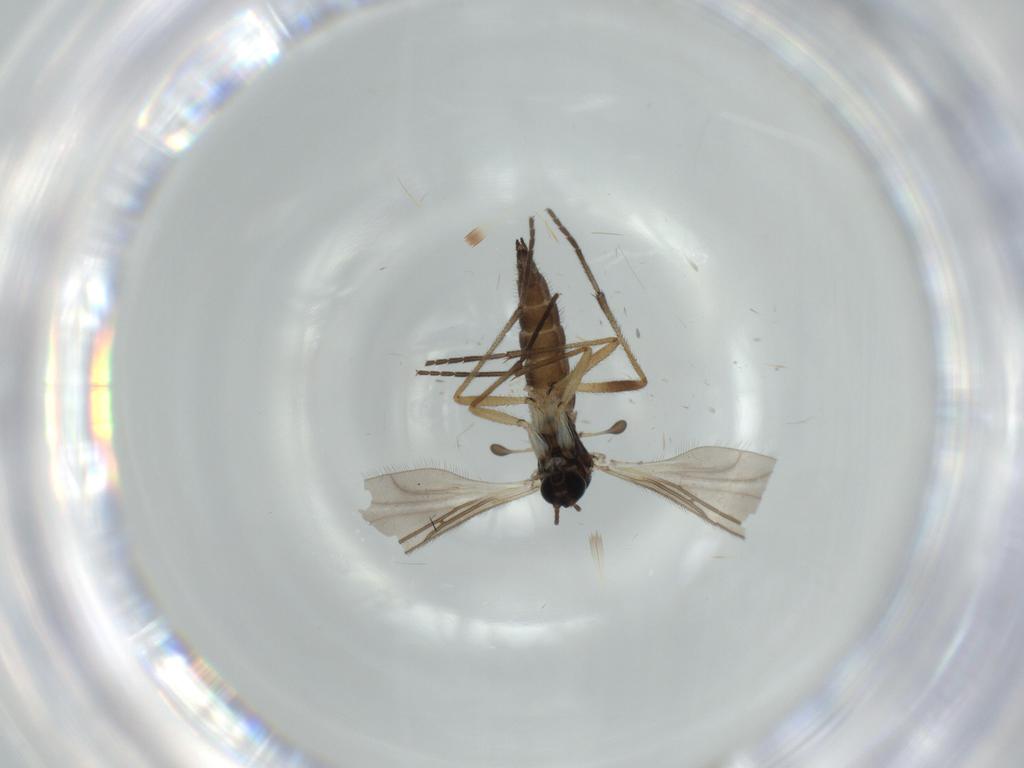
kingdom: Animalia
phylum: Arthropoda
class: Insecta
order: Diptera
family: Sciaridae
